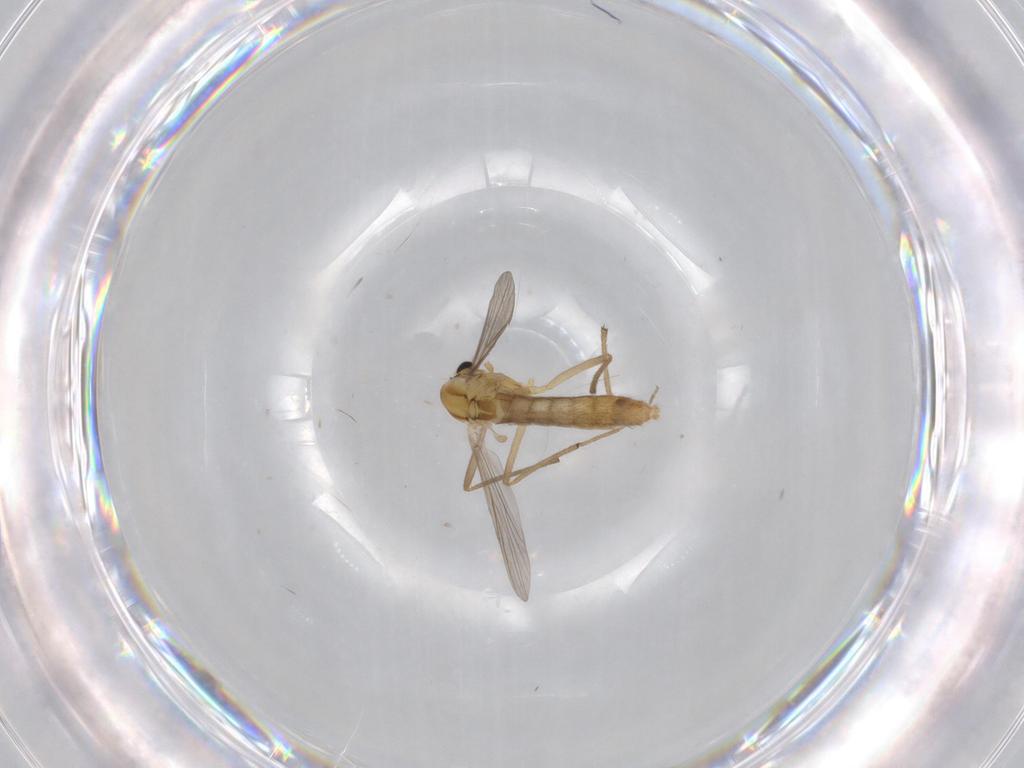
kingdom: Animalia
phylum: Arthropoda
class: Insecta
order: Diptera
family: Chironomidae
